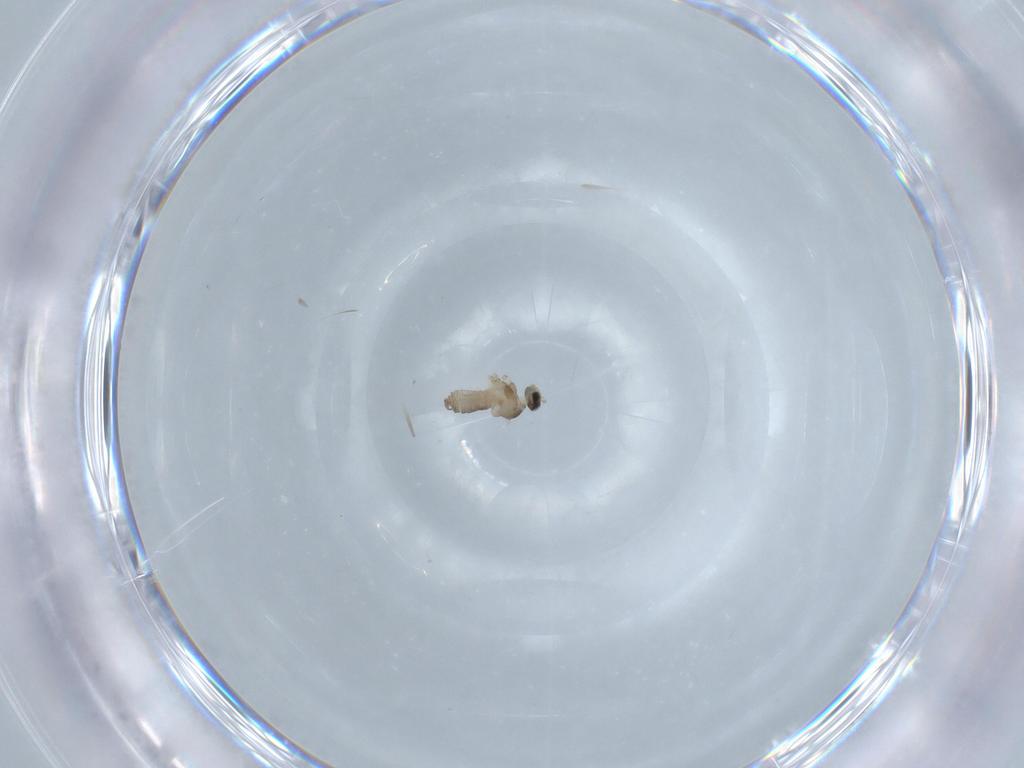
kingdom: Animalia
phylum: Arthropoda
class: Insecta
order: Diptera
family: Cecidomyiidae
